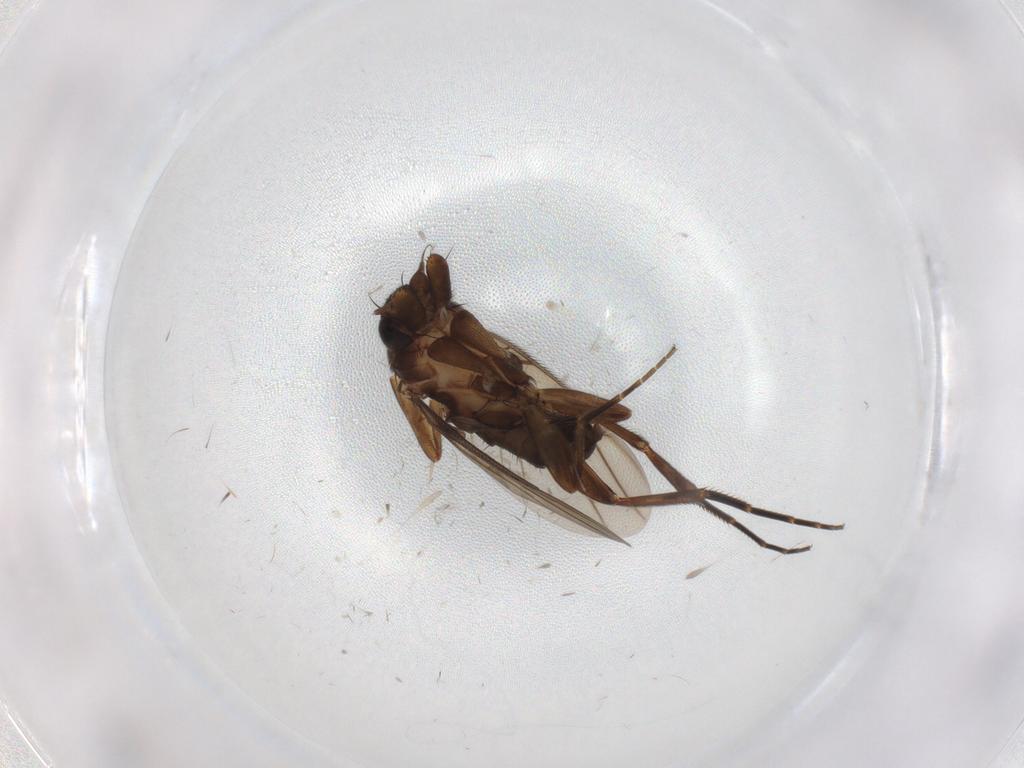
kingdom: Animalia
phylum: Arthropoda
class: Insecta
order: Diptera
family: Cecidomyiidae
